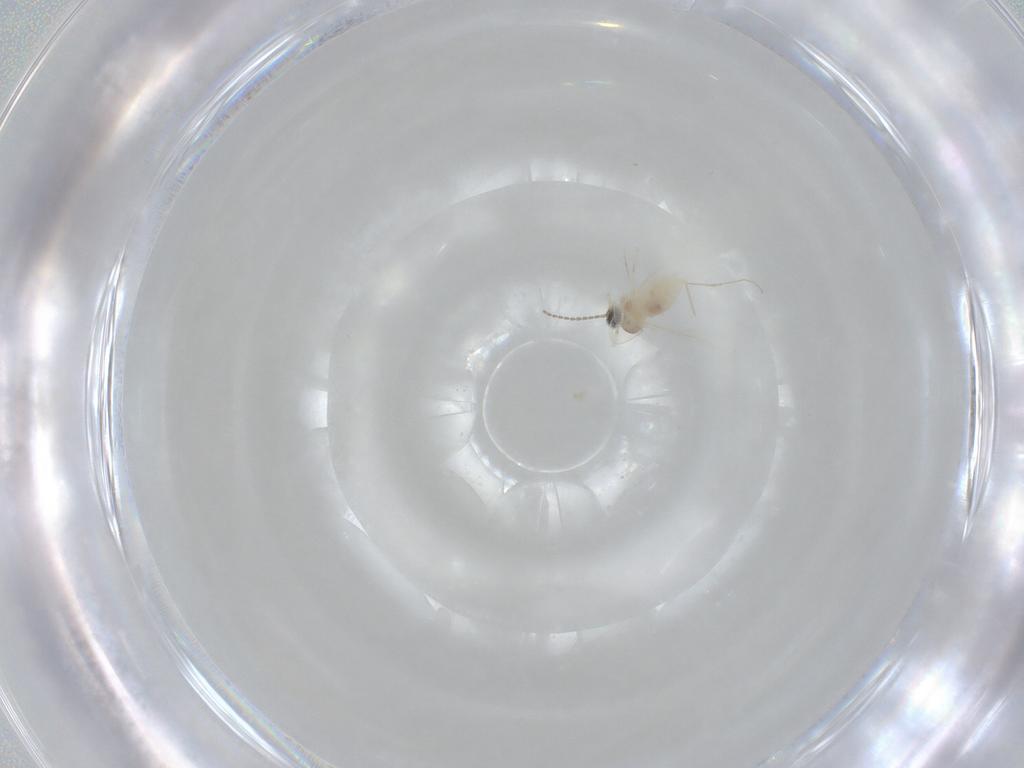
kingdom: Animalia
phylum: Arthropoda
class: Insecta
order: Diptera
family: Cecidomyiidae
